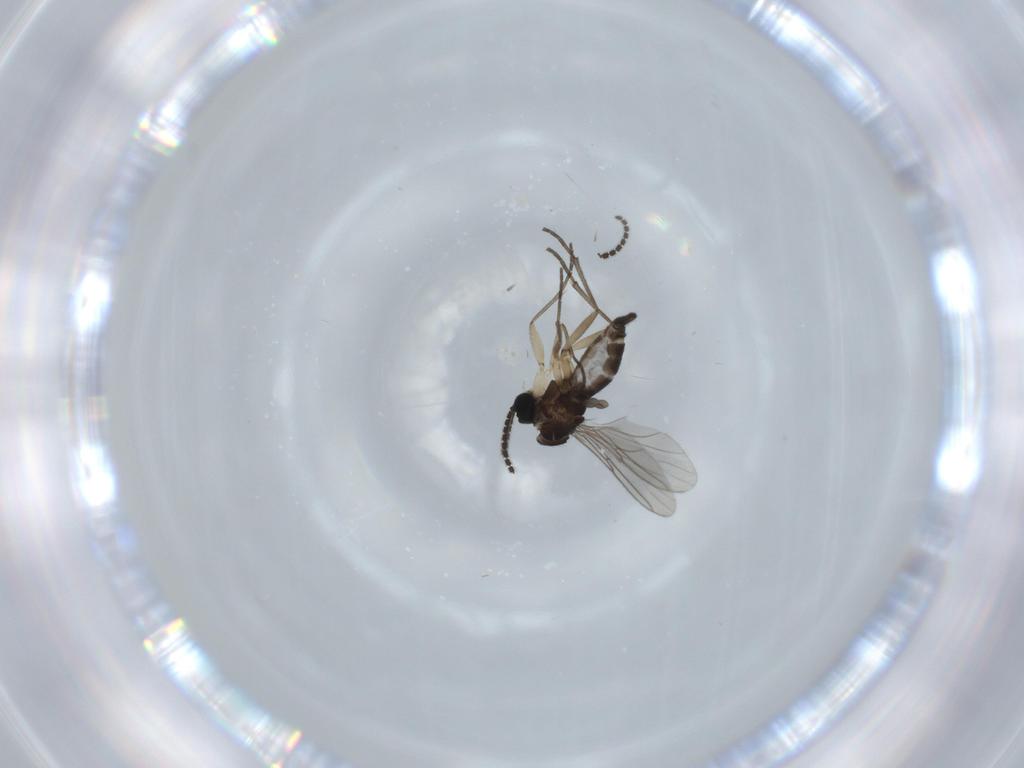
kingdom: Animalia
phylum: Arthropoda
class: Insecta
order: Diptera
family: Sciaridae
